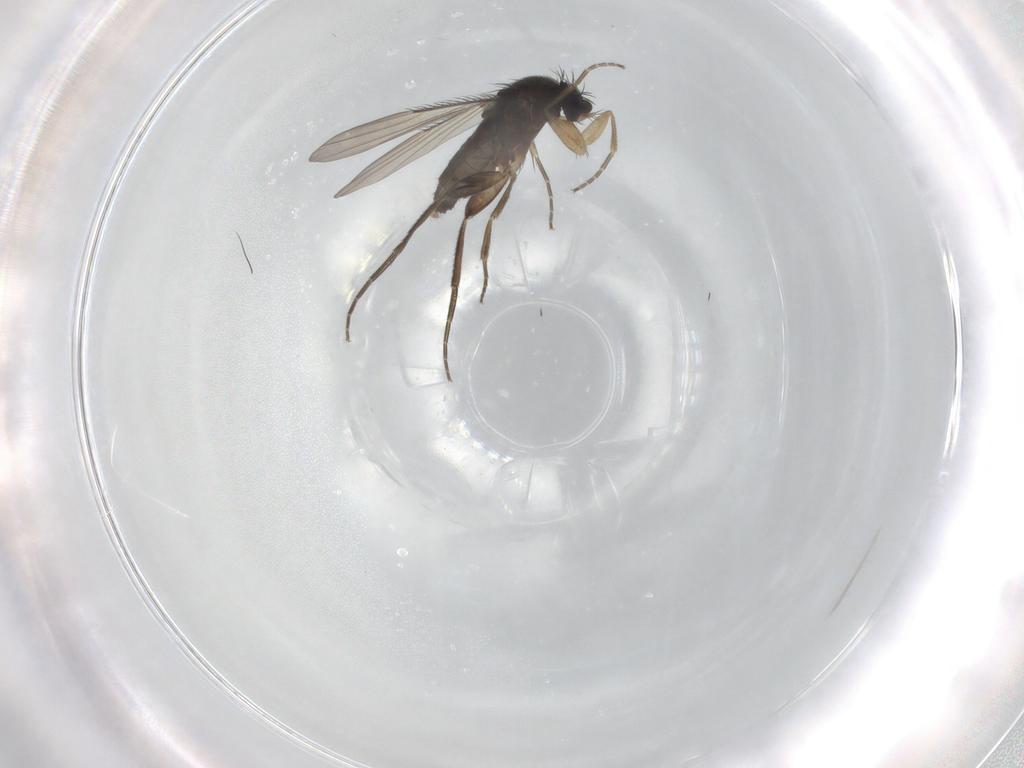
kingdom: Animalia
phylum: Arthropoda
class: Insecta
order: Diptera
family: Phoridae
